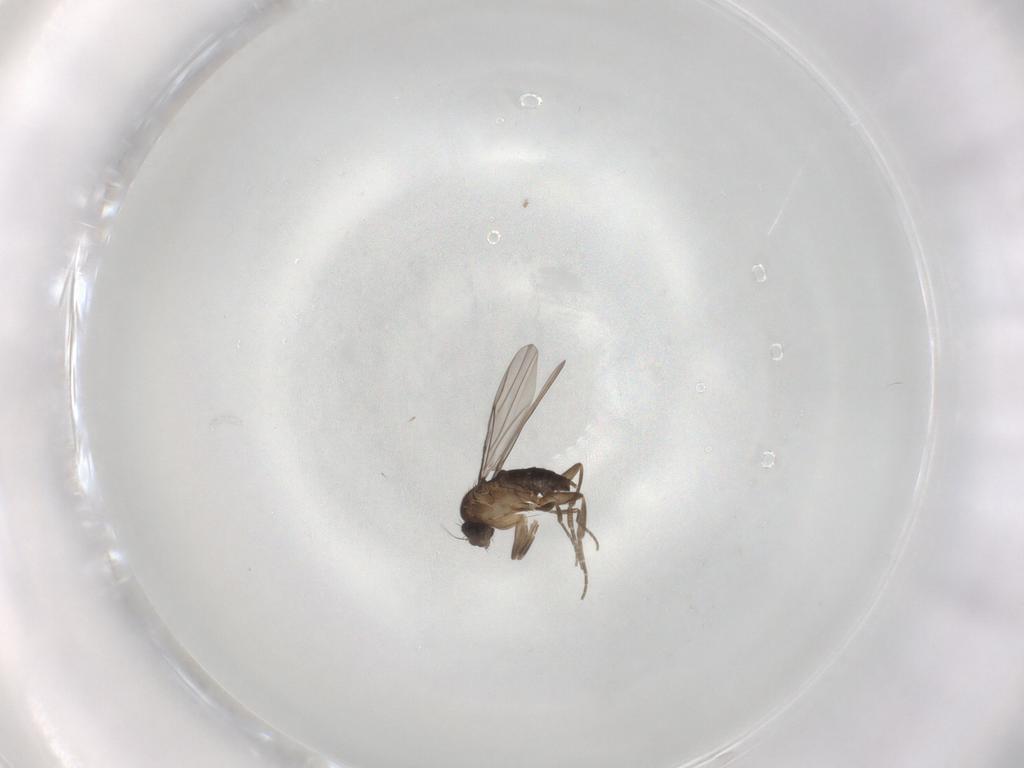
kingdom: Animalia
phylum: Arthropoda
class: Insecta
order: Diptera
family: Phoridae
